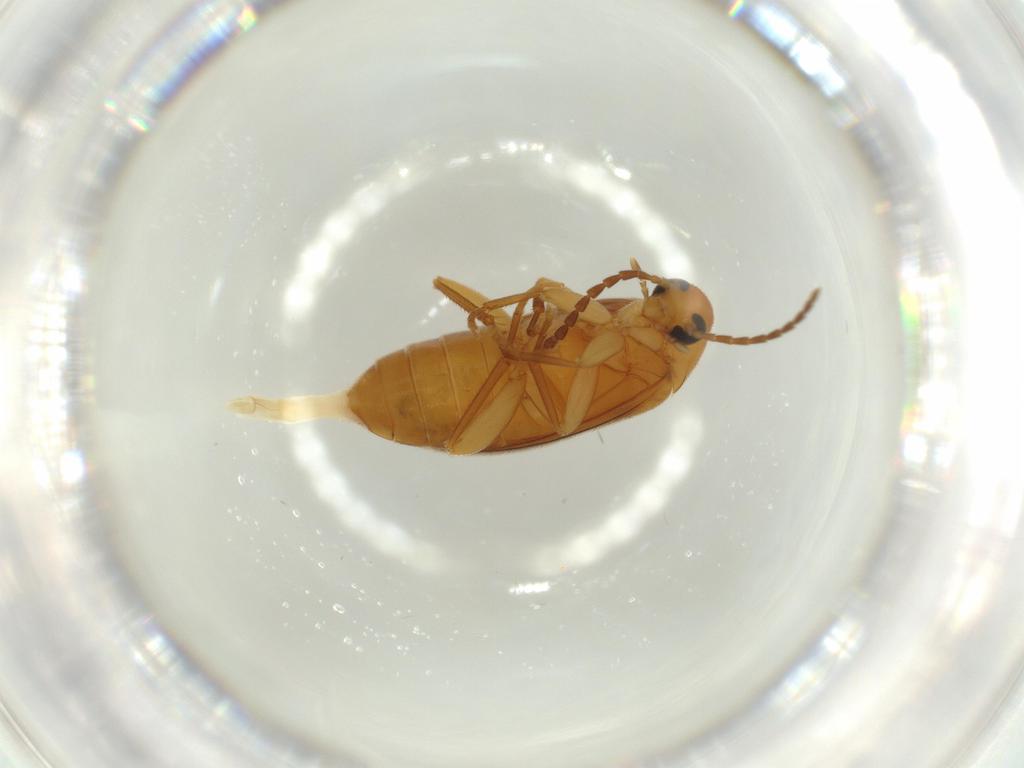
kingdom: Animalia
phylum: Arthropoda
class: Insecta
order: Coleoptera
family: Scraptiidae
